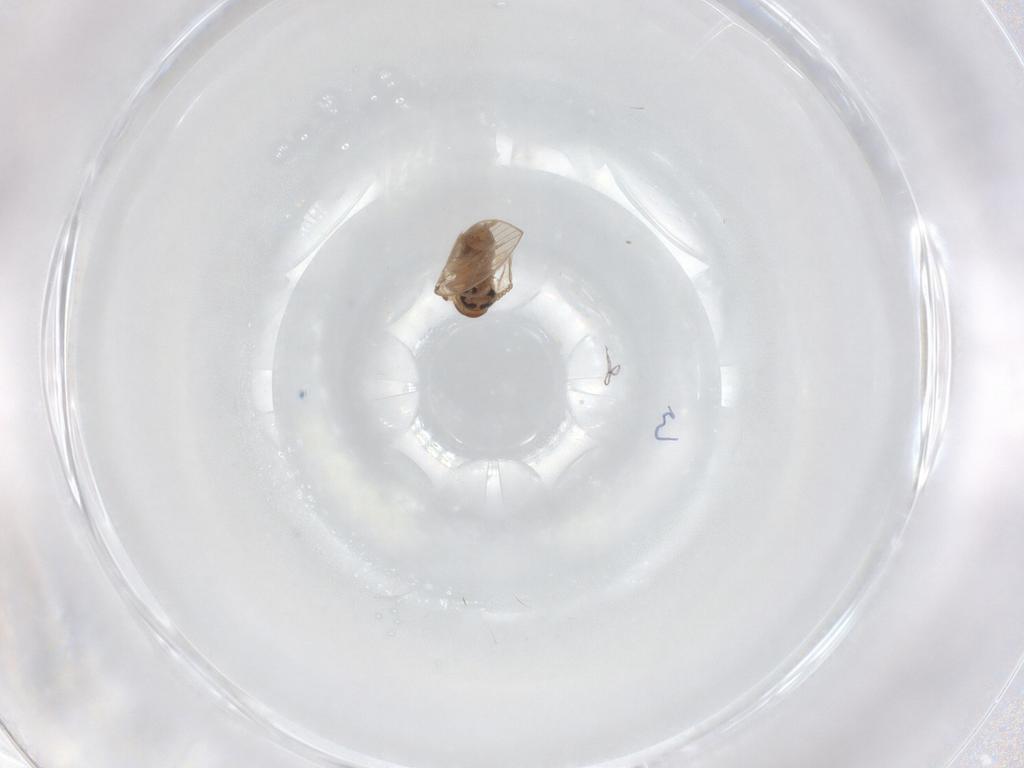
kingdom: Animalia
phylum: Arthropoda
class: Insecta
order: Diptera
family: Psychodidae
